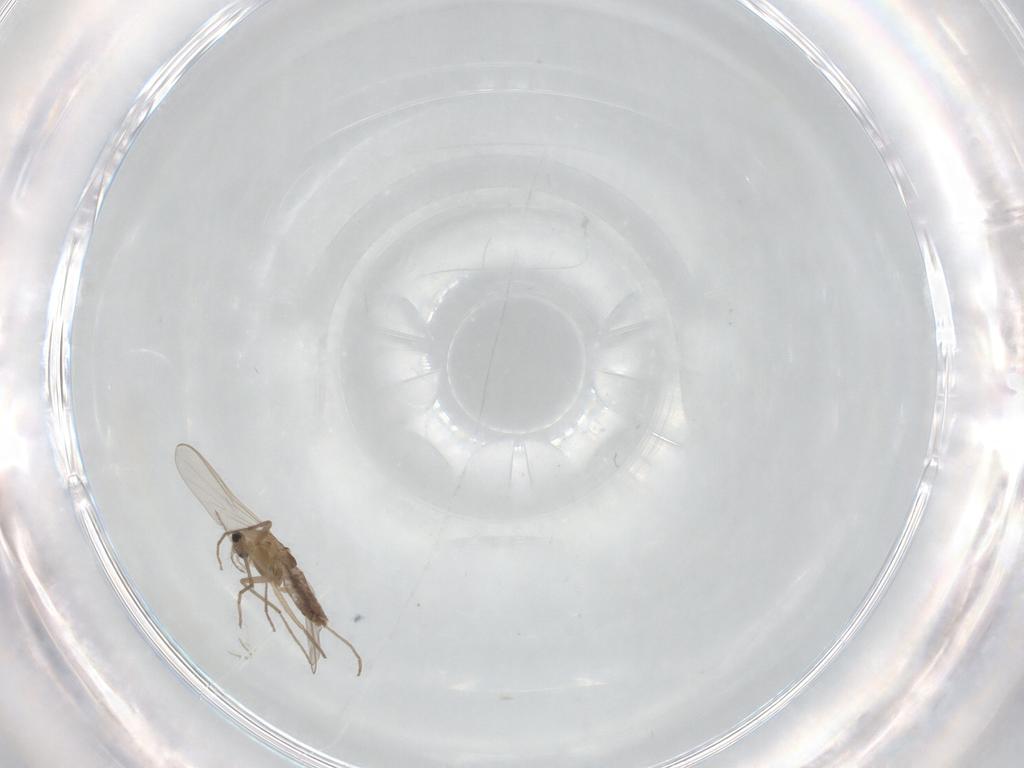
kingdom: Animalia
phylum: Arthropoda
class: Insecta
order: Diptera
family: Chironomidae
